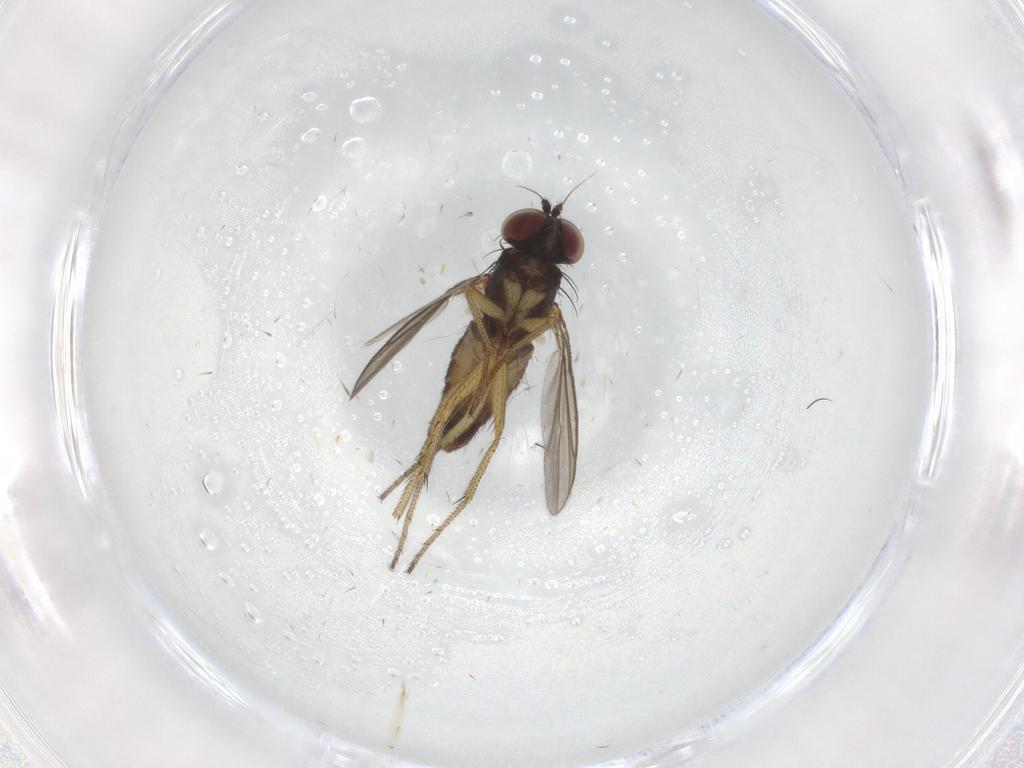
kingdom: Animalia
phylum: Arthropoda
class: Insecta
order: Diptera
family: Dolichopodidae
